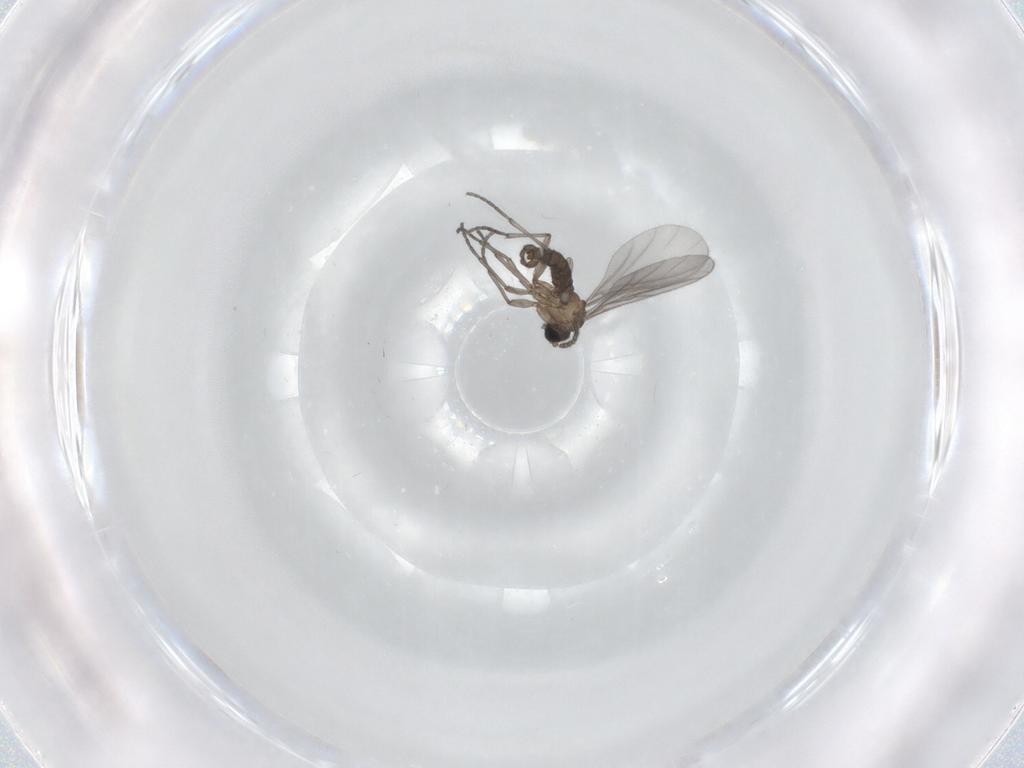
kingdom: Animalia
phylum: Arthropoda
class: Insecta
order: Diptera
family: Sciaridae
